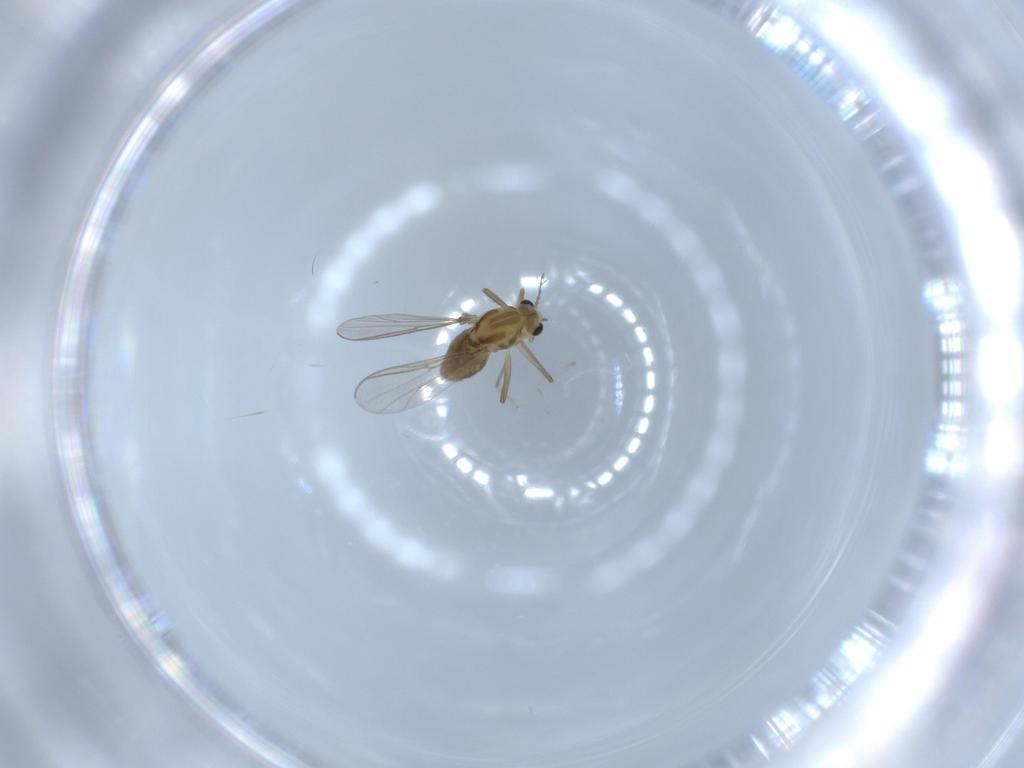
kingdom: Animalia
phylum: Arthropoda
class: Insecta
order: Diptera
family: Chironomidae
